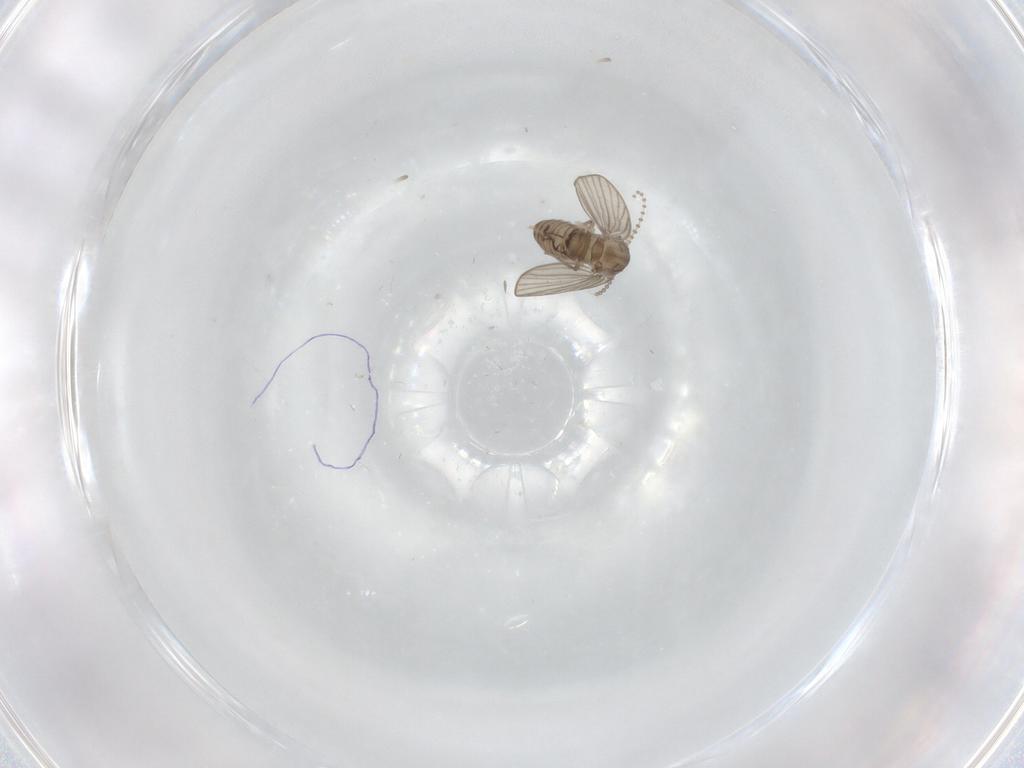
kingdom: Animalia
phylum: Arthropoda
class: Insecta
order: Diptera
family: Psychodidae
